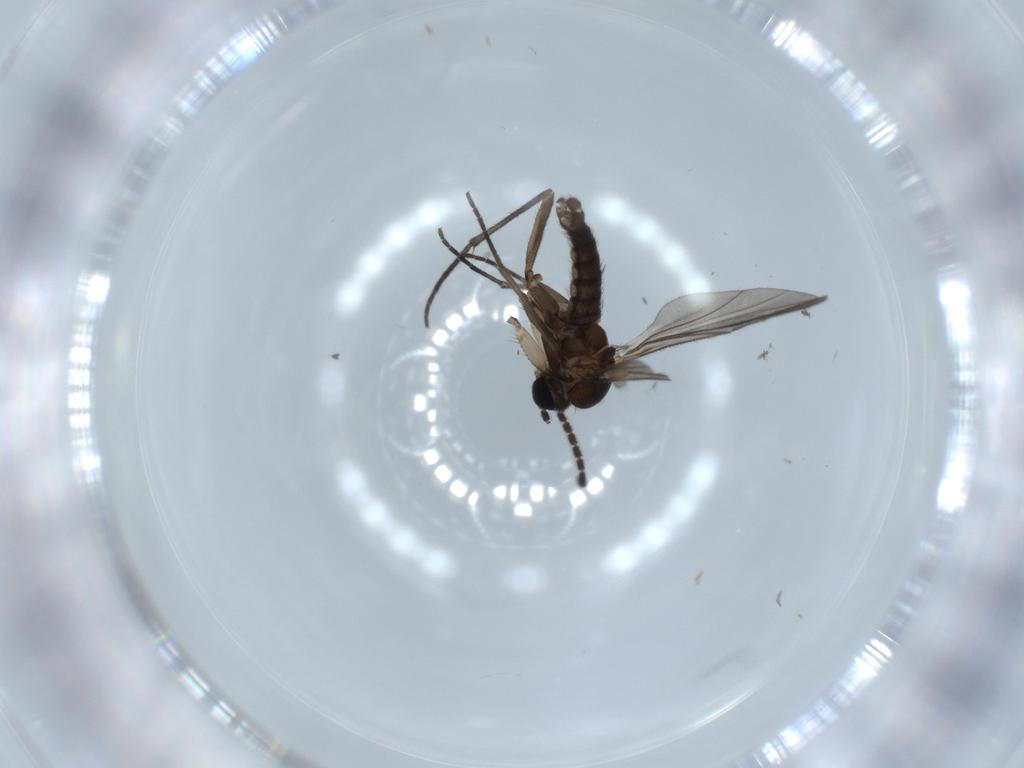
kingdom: Animalia
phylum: Arthropoda
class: Insecta
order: Diptera
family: Sciaridae
